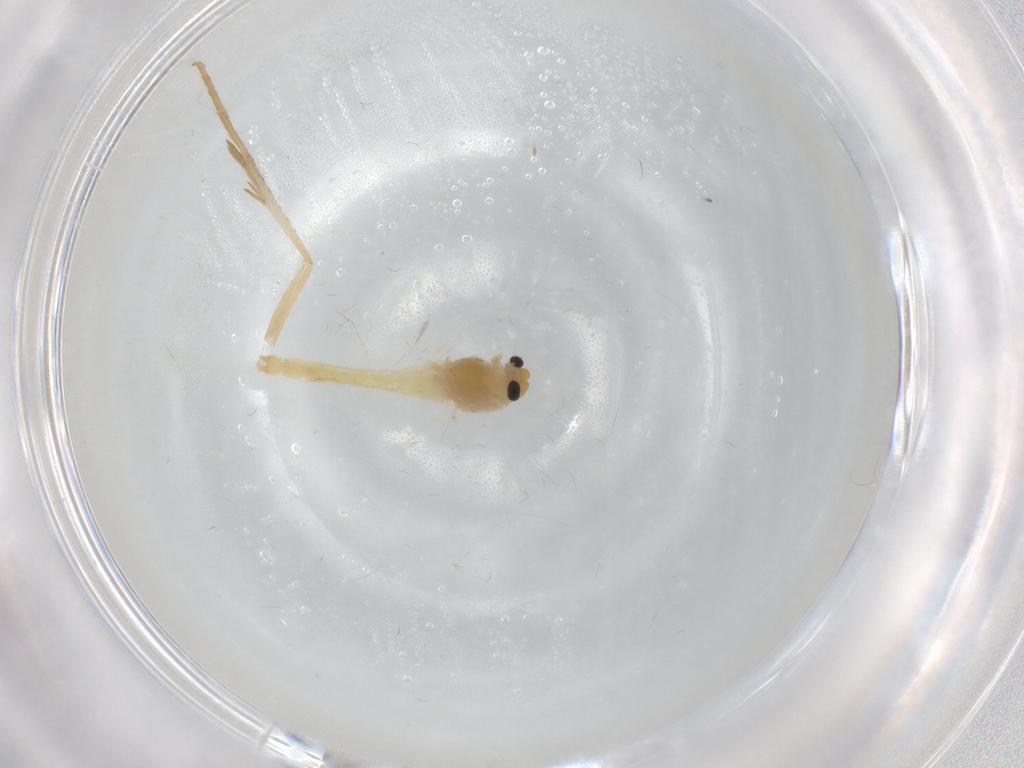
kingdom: Animalia
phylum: Arthropoda
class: Insecta
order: Diptera
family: Chironomidae
